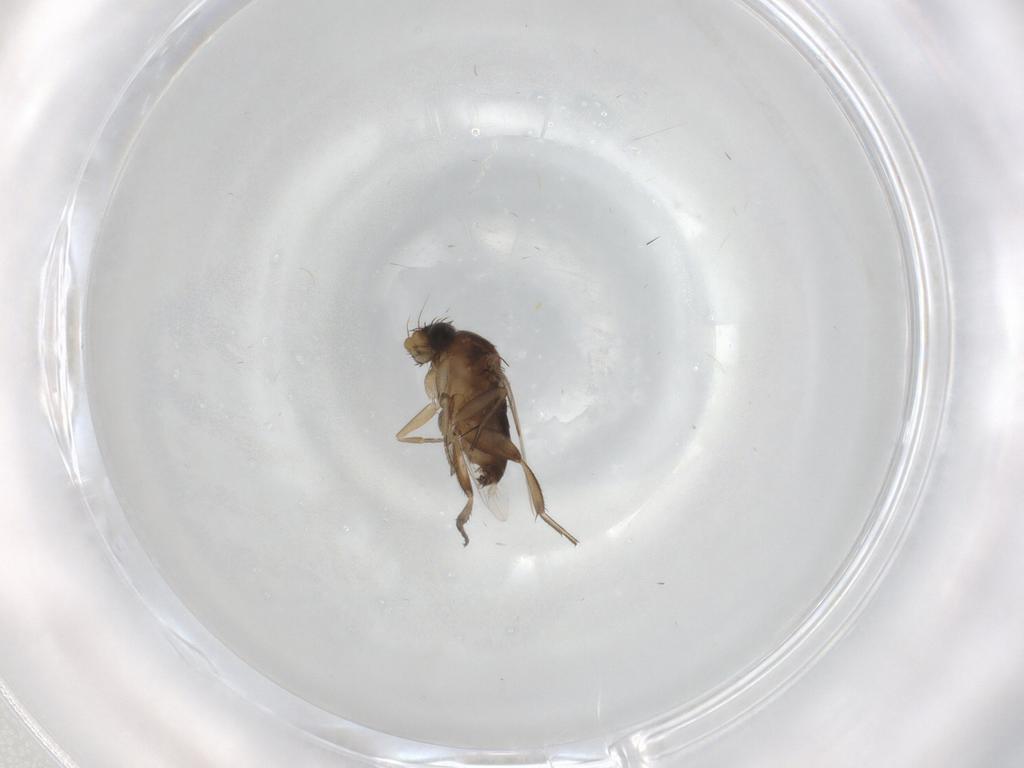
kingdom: Animalia
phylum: Arthropoda
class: Insecta
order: Diptera
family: Phoridae
